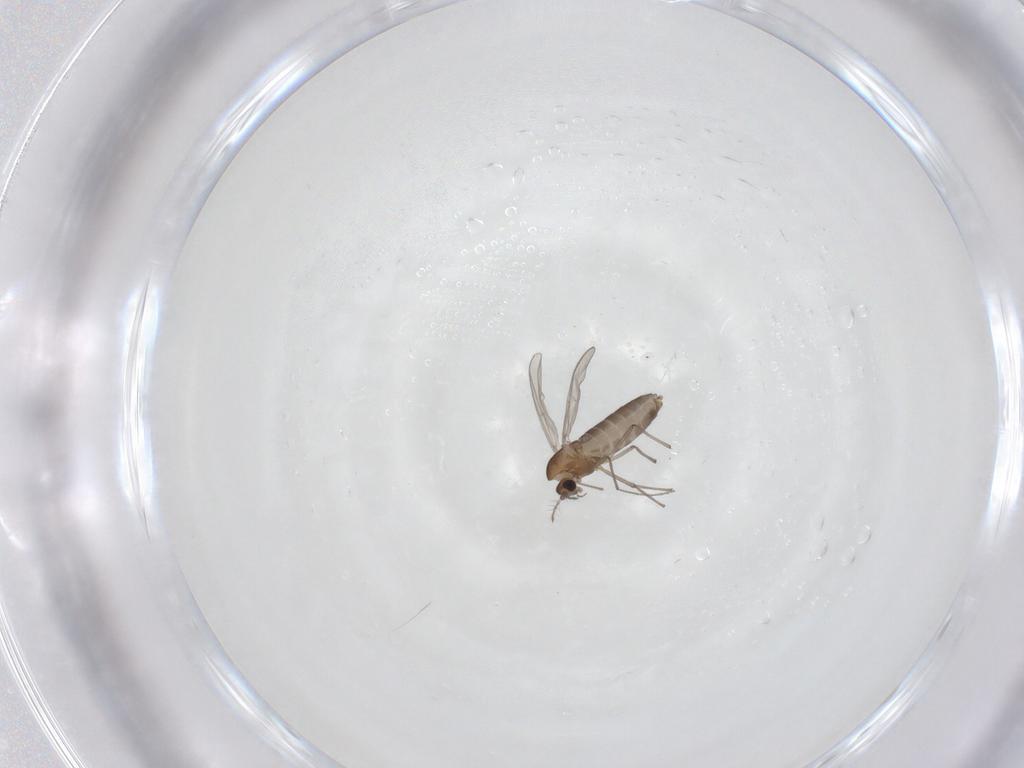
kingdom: Animalia
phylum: Arthropoda
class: Insecta
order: Diptera
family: Chironomidae
